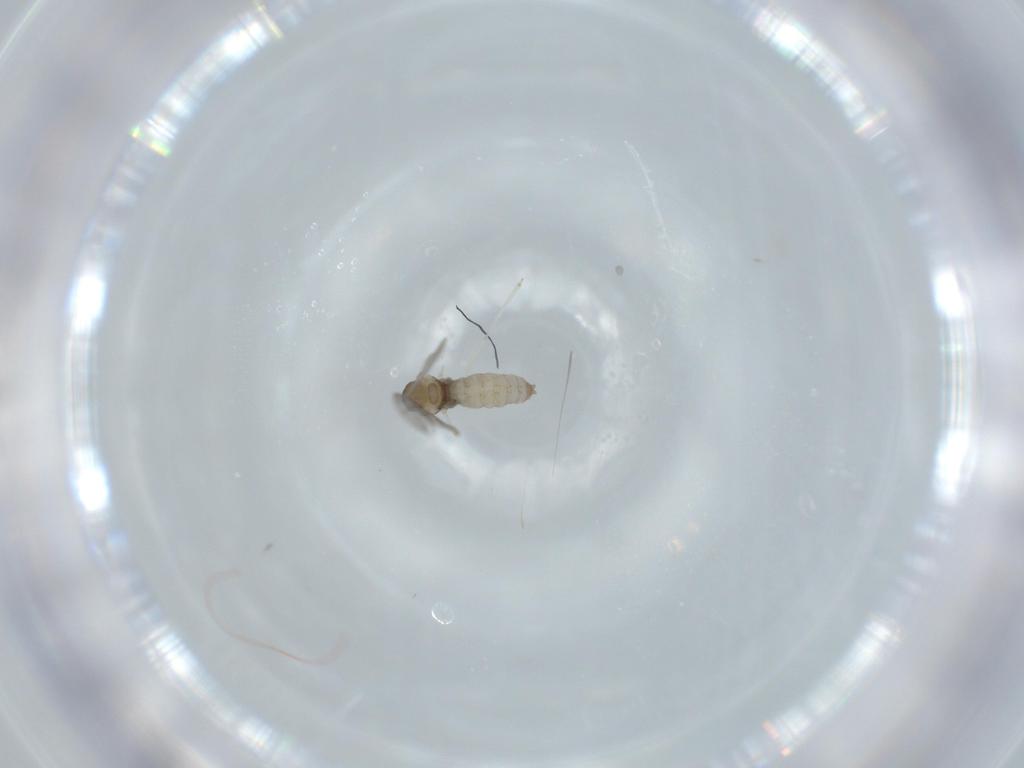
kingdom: Animalia
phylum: Arthropoda
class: Insecta
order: Diptera
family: Cecidomyiidae
